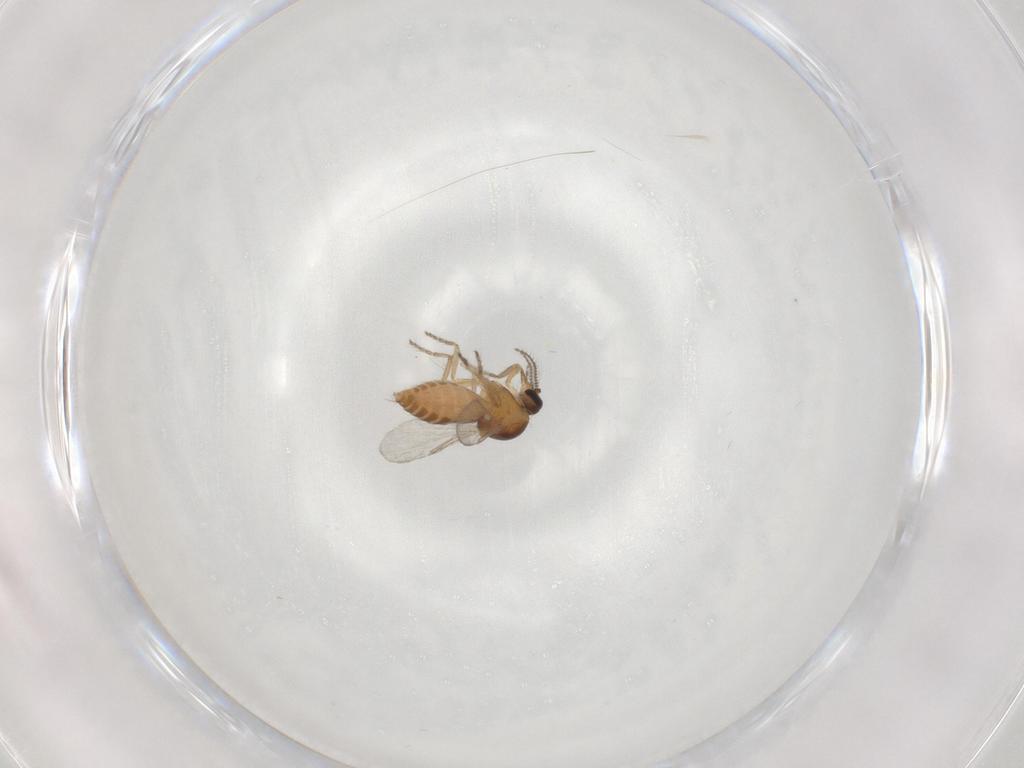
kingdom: Animalia
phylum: Arthropoda
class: Insecta
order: Diptera
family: Ceratopogonidae
